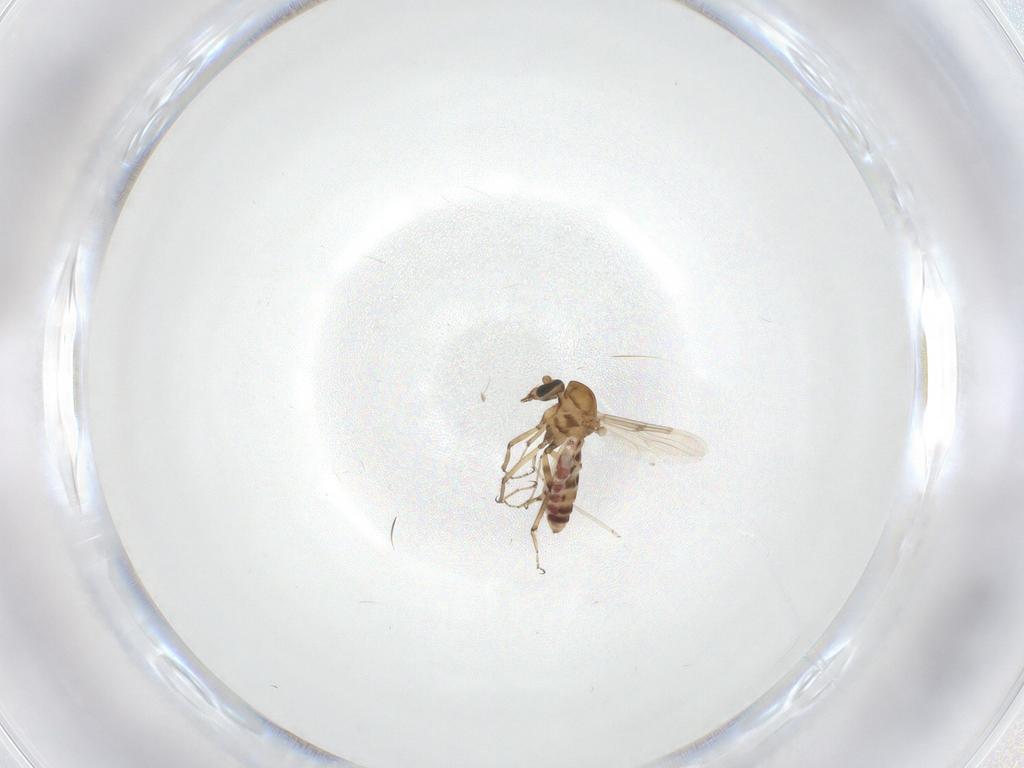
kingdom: Animalia
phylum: Arthropoda
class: Insecta
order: Diptera
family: Ceratopogonidae
